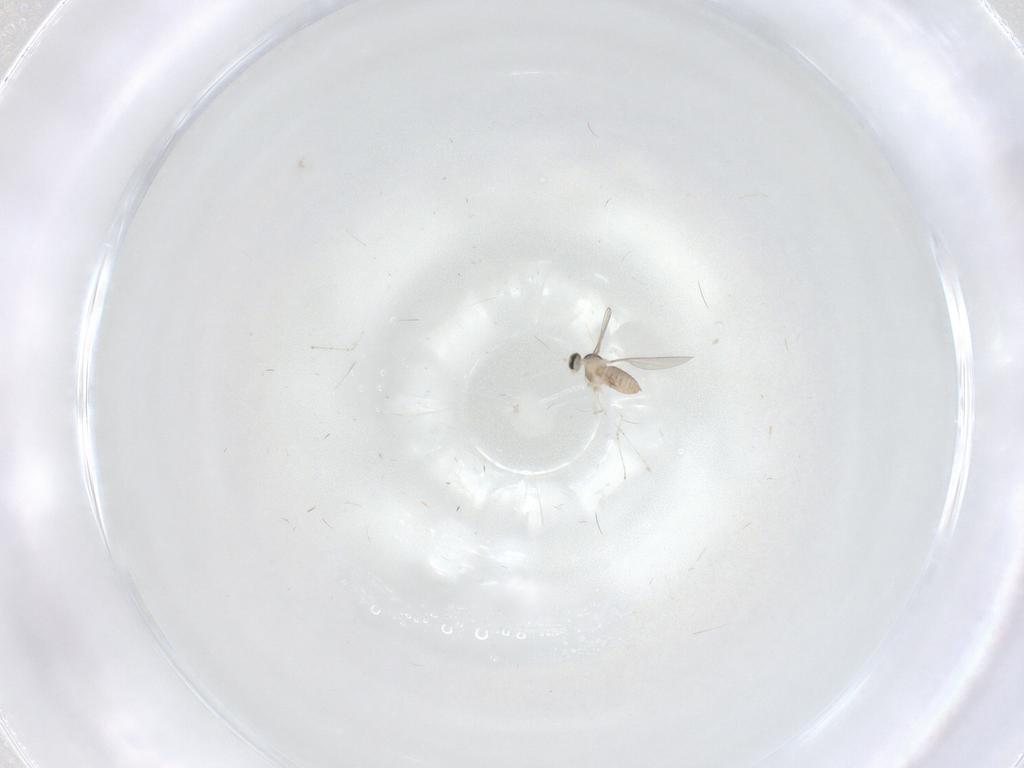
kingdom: Animalia
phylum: Arthropoda
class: Insecta
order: Diptera
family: Cecidomyiidae
